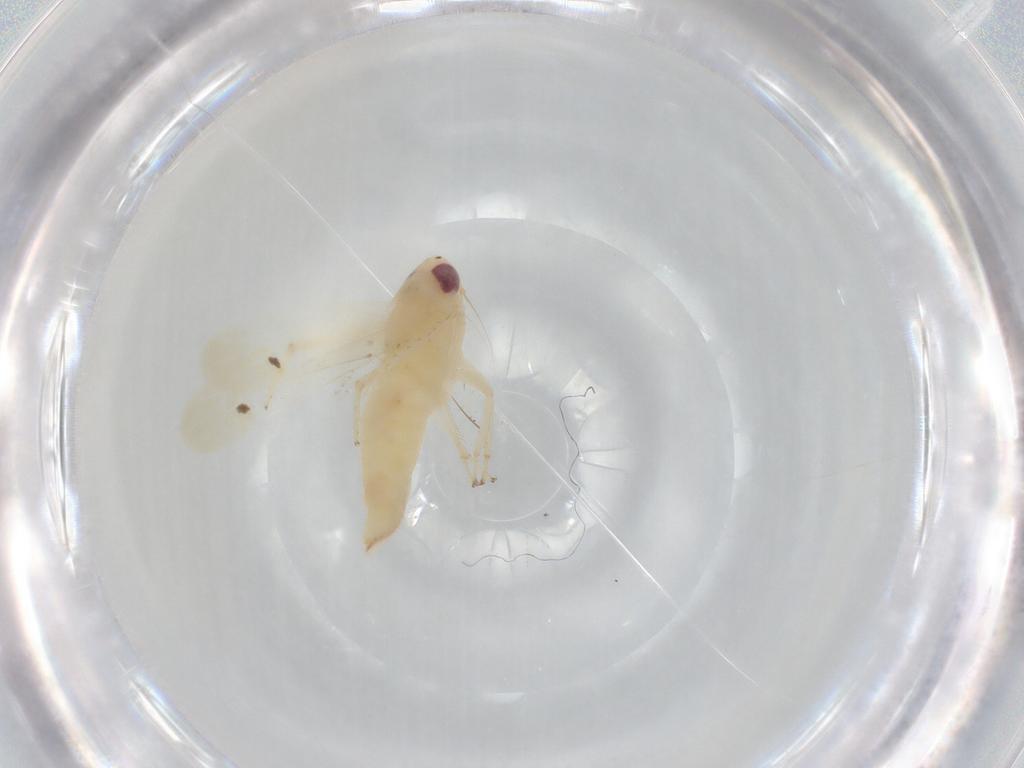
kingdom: Animalia
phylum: Arthropoda
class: Insecta
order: Hemiptera
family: Cicadellidae
